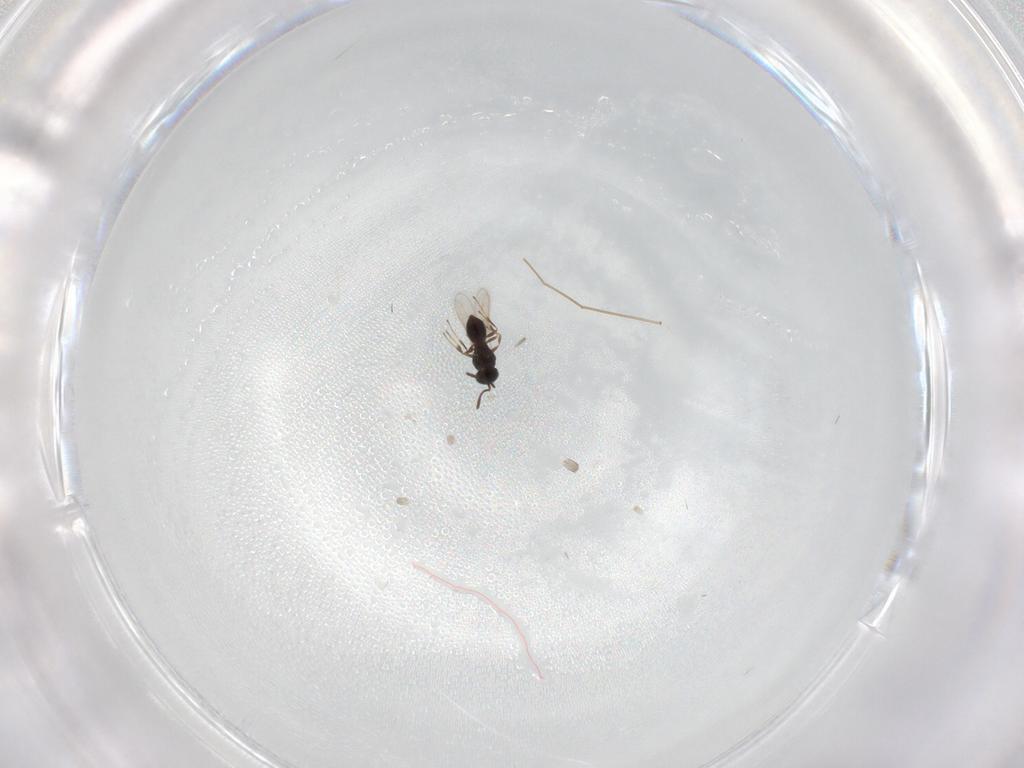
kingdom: Animalia
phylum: Arthropoda
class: Insecta
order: Hymenoptera
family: Scelionidae
